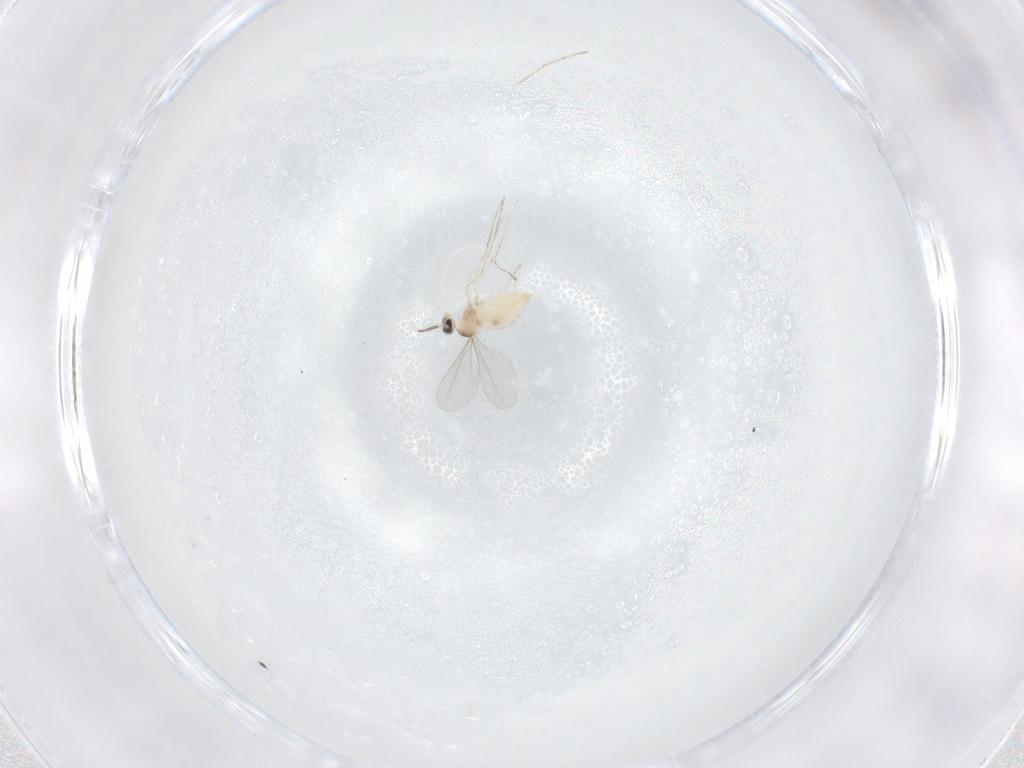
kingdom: Animalia
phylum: Arthropoda
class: Insecta
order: Diptera
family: Cecidomyiidae
